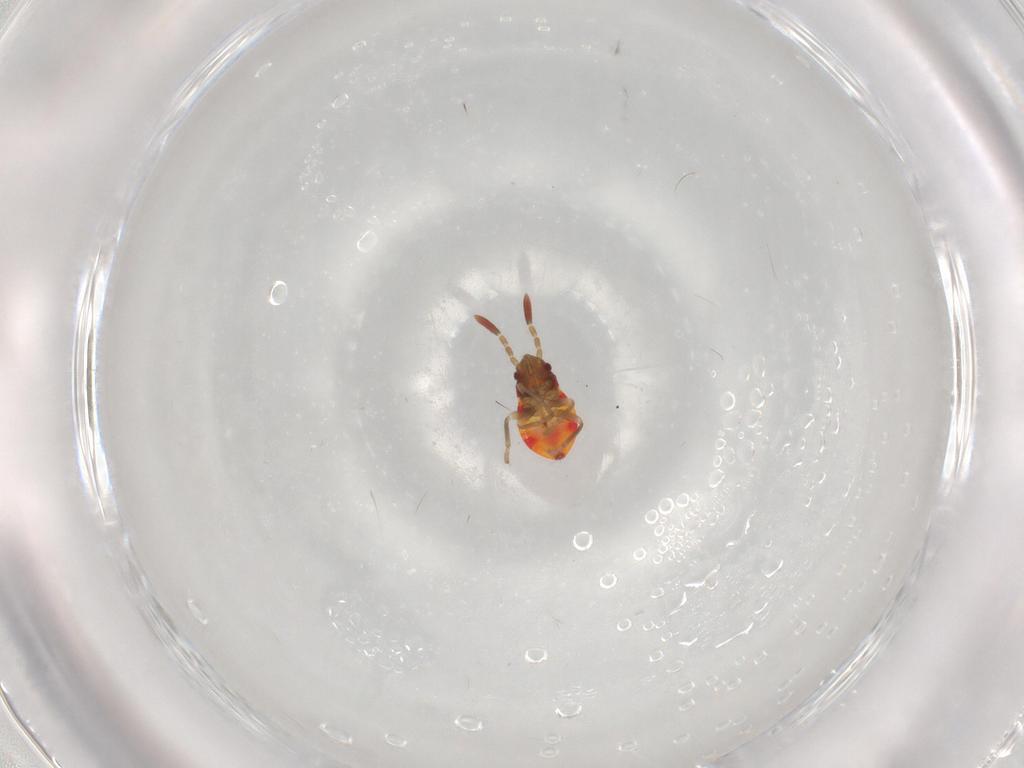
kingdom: Animalia
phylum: Arthropoda
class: Insecta
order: Hemiptera
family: Rhyparochromidae
